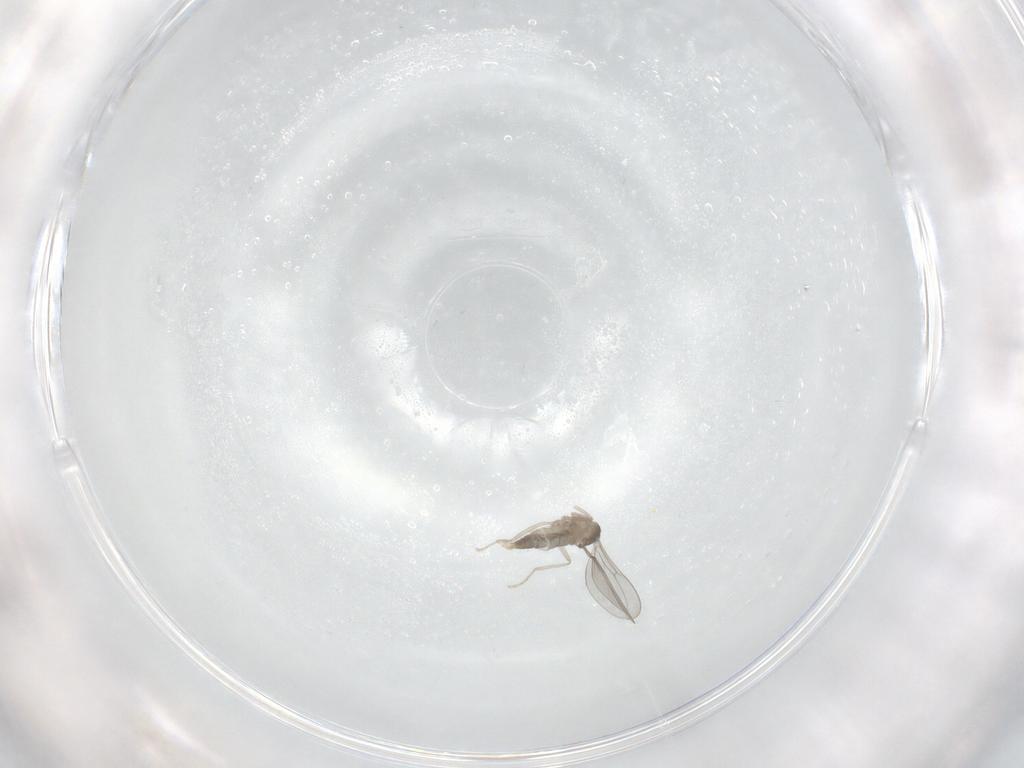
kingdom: Animalia
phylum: Arthropoda
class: Insecta
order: Diptera
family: Cecidomyiidae
